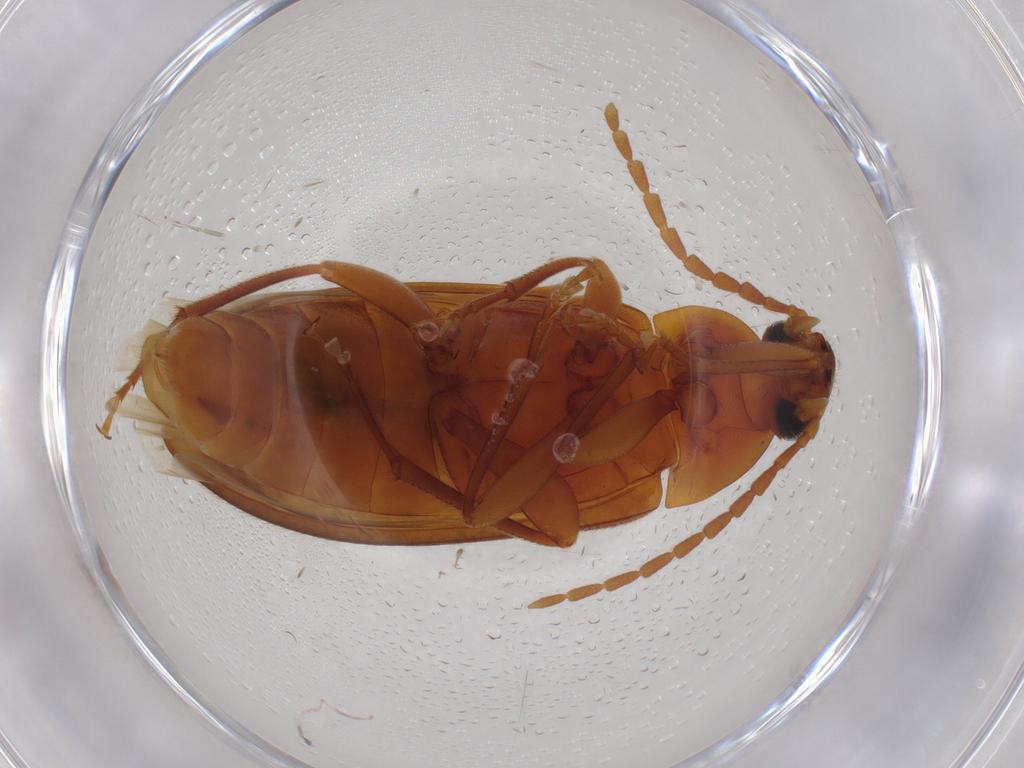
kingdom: Animalia
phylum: Arthropoda
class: Insecta
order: Coleoptera
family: Tenebrionidae
